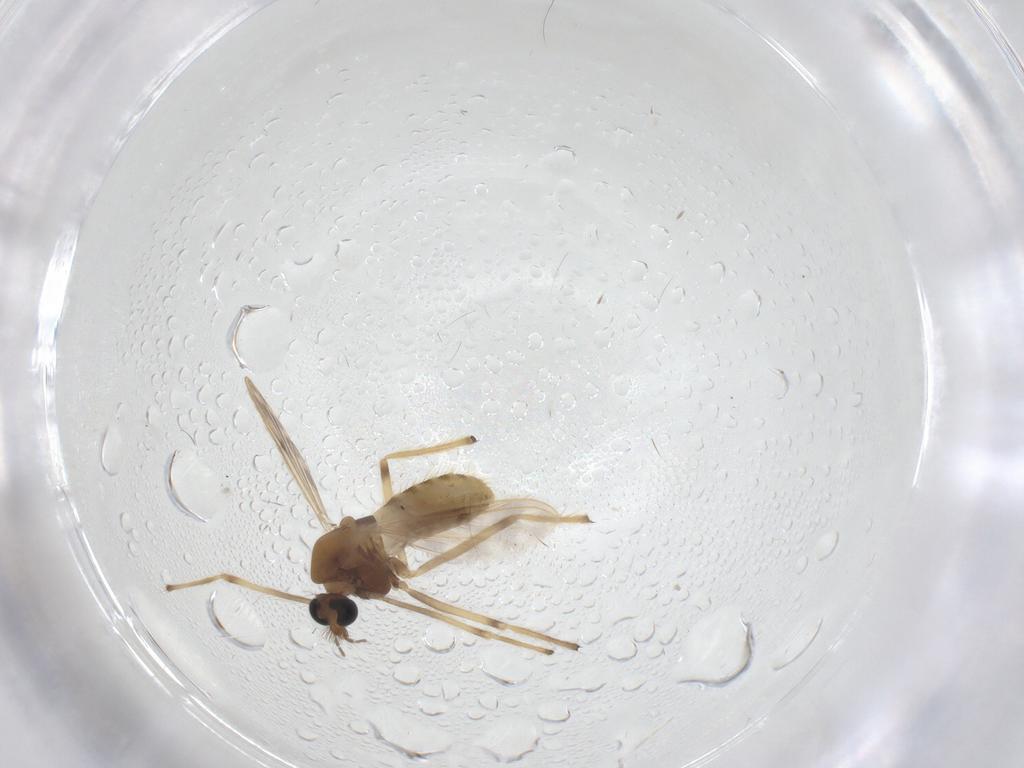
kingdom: Animalia
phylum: Arthropoda
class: Insecta
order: Diptera
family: Chironomidae
